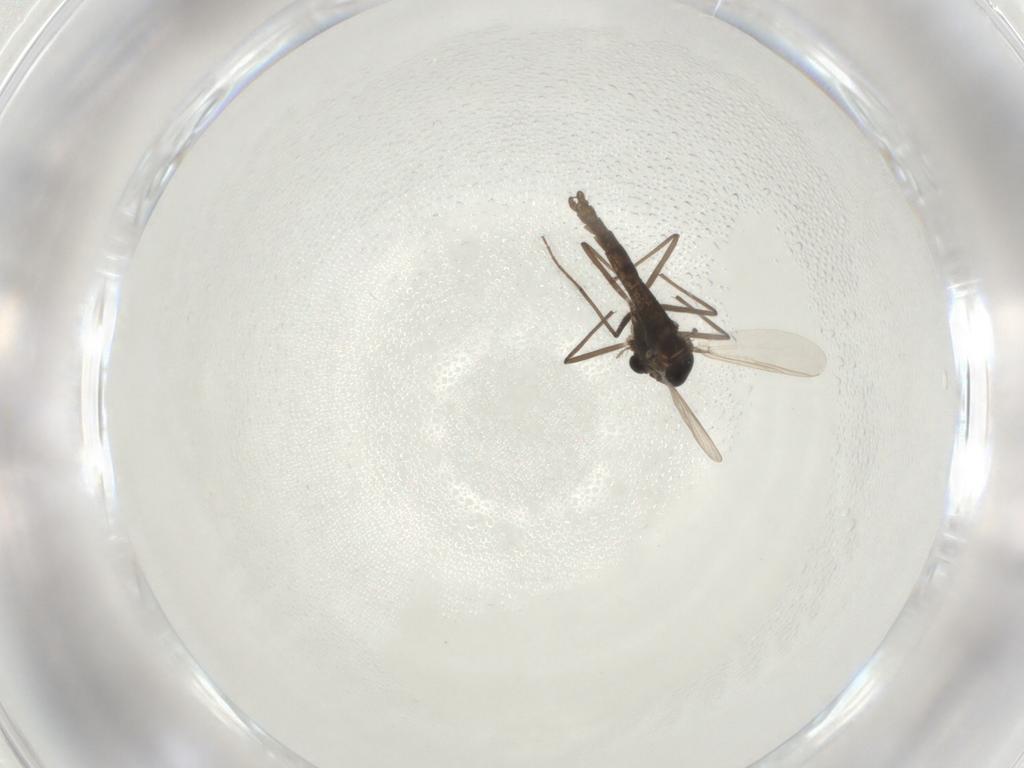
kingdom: Animalia
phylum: Arthropoda
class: Insecta
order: Diptera
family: Chironomidae
